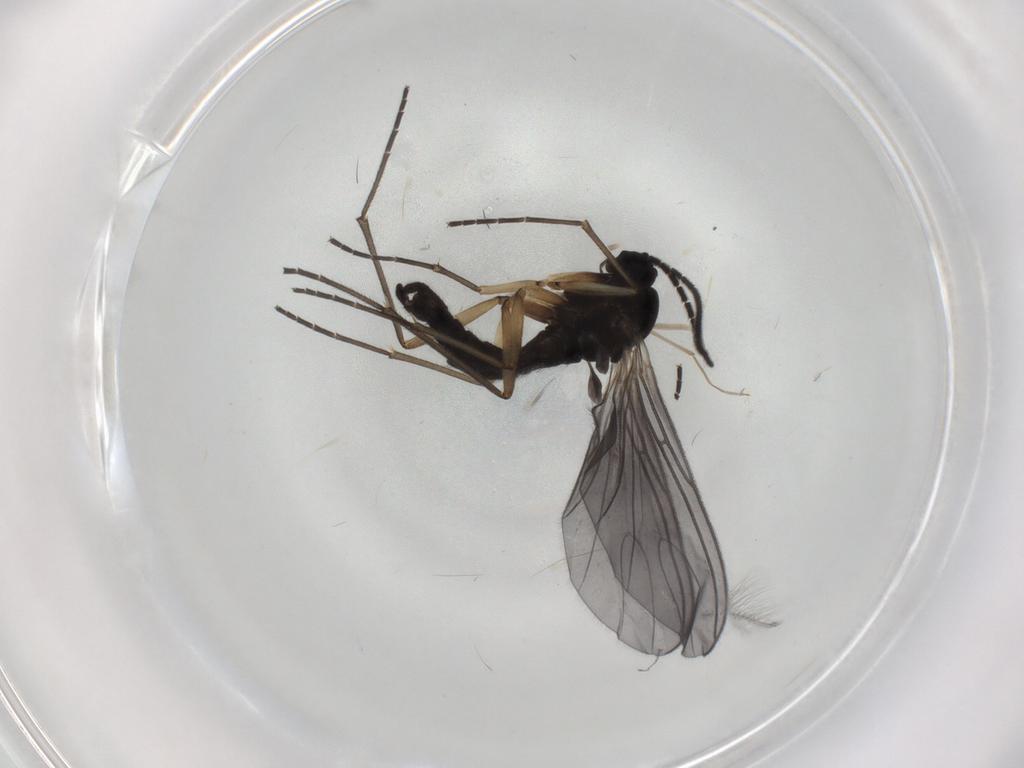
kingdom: Animalia
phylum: Arthropoda
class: Insecta
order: Diptera
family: Sciaridae
